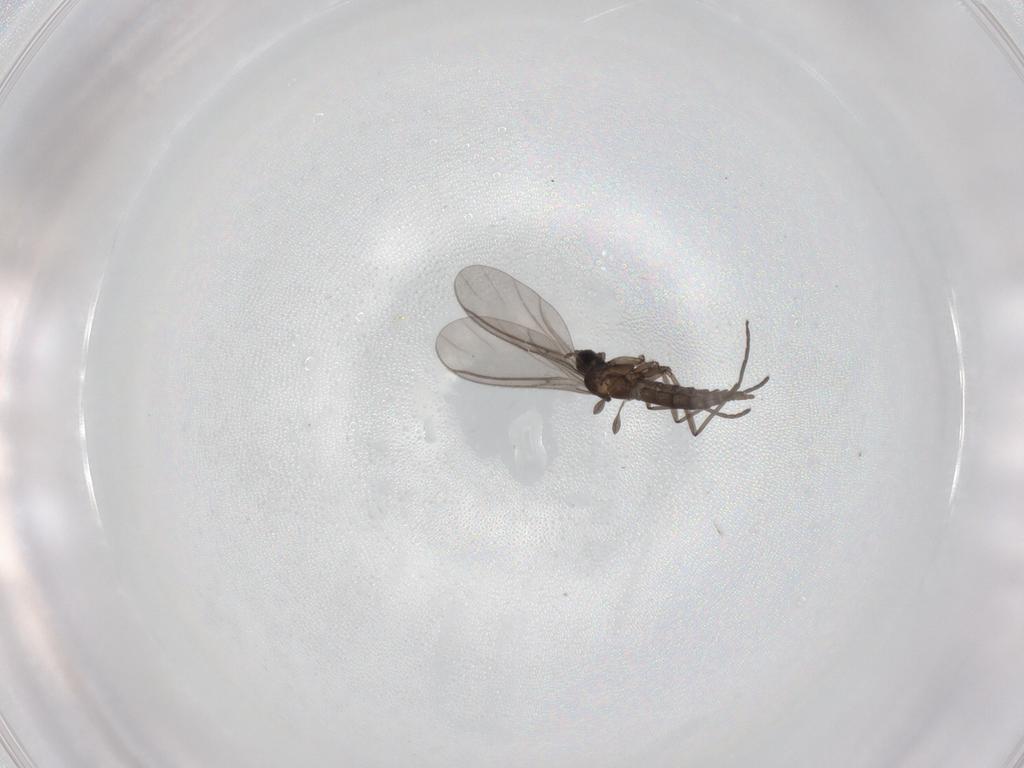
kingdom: Animalia
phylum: Arthropoda
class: Insecta
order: Diptera
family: Sciaridae
